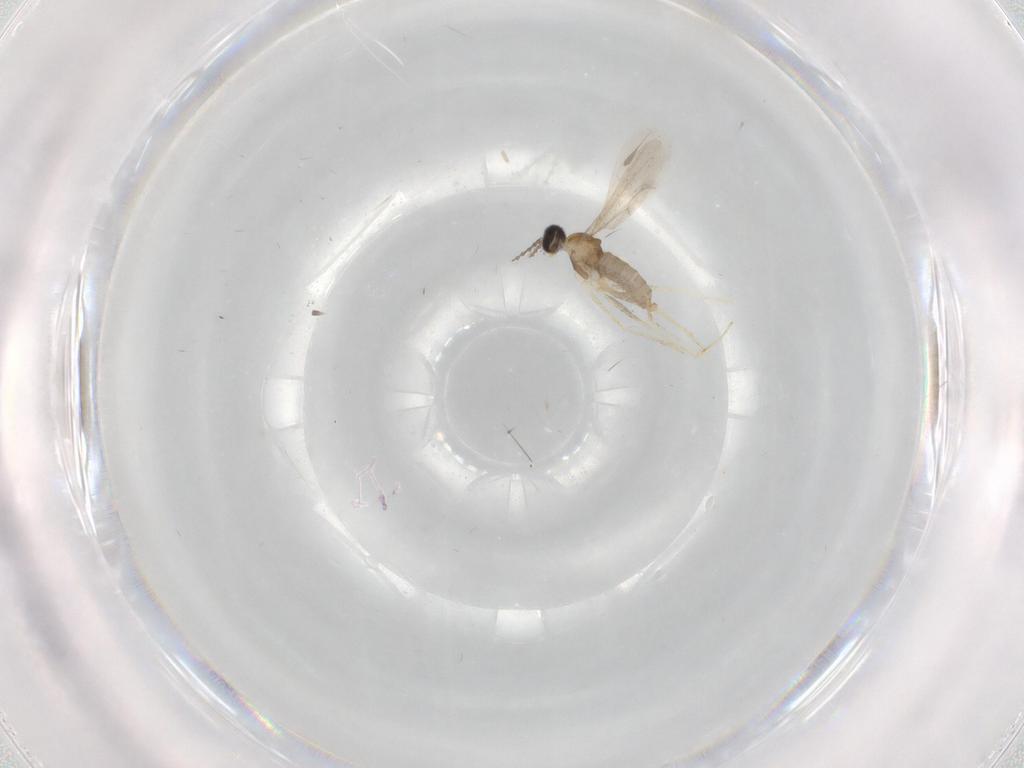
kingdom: Animalia
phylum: Arthropoda
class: Insecta
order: Diptera
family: Cecidomyiidae
